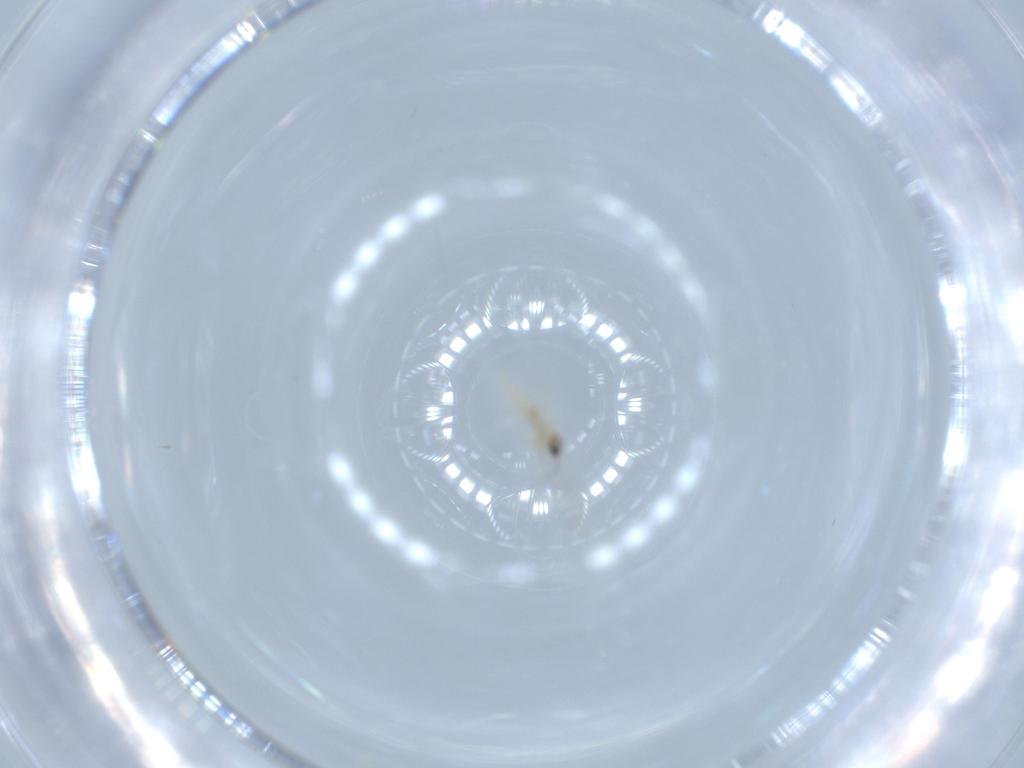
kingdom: Animalia
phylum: Arthropoda
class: Insecta
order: Diptera
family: Cecidomyiidae
